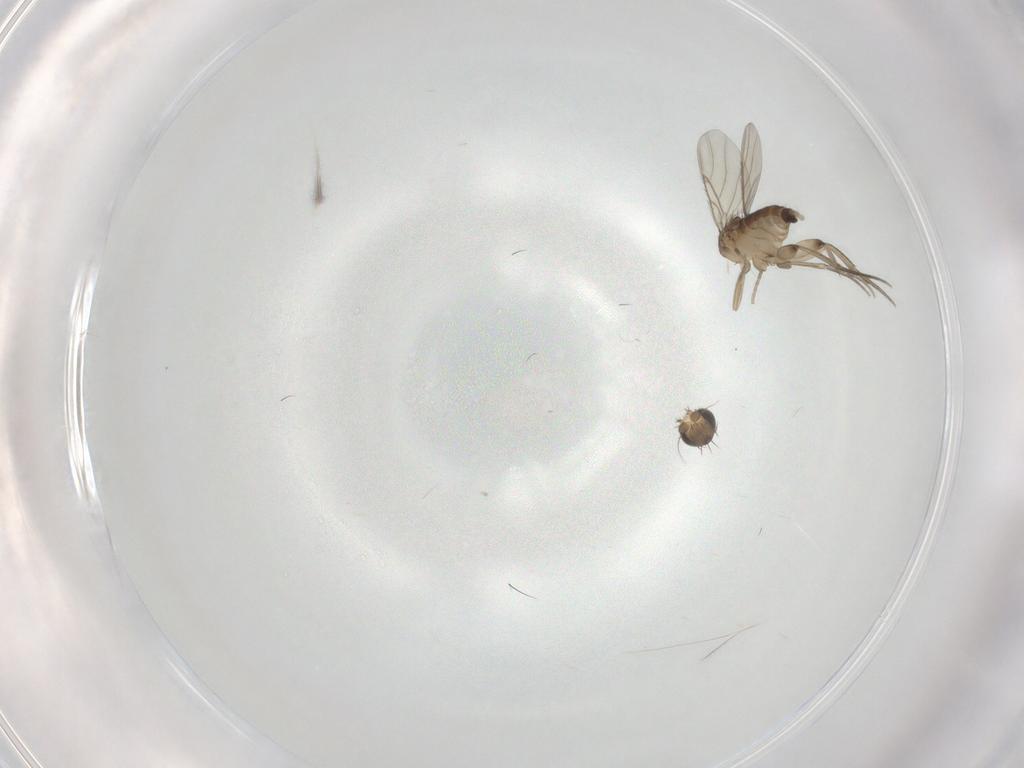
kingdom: Animalia
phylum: Arthropoda
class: Insecta
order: Diptera
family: Phoridae
